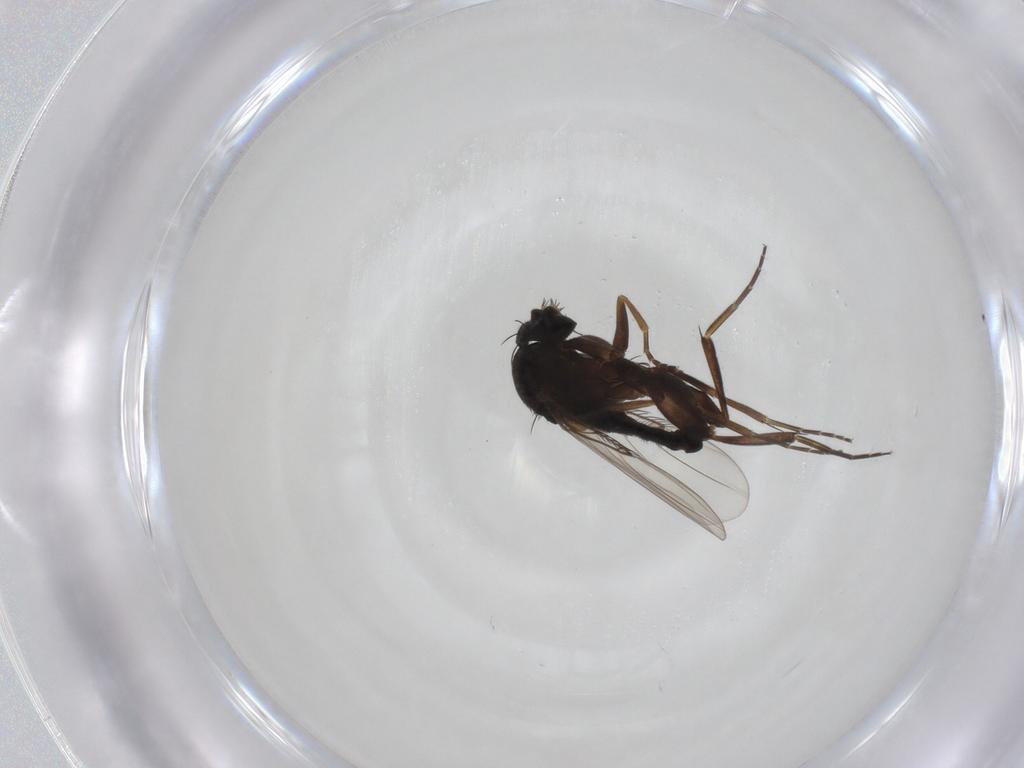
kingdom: Animalia
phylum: Arthropoda
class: Insecta
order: Diptera
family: Phoridae
